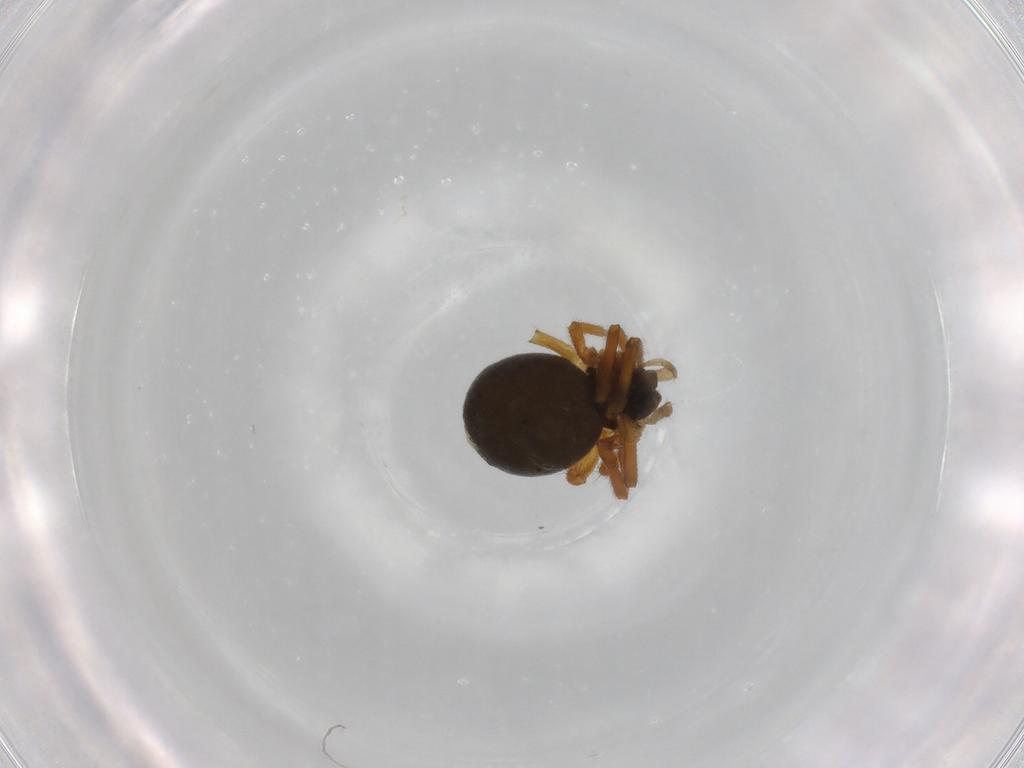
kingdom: Animalia
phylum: Arthropoda
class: Arachnida
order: Araneae
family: Linyphiidae
